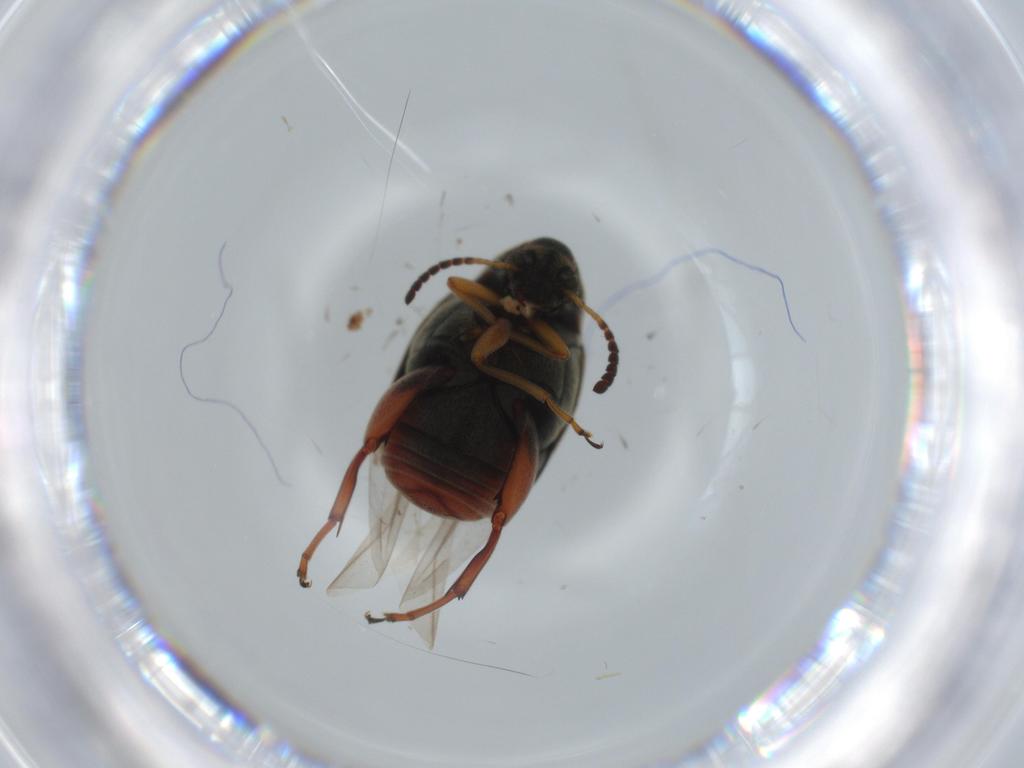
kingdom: Animalia
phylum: Arthropoda
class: Insecta
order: Coleoptera
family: Chrysomelidae
